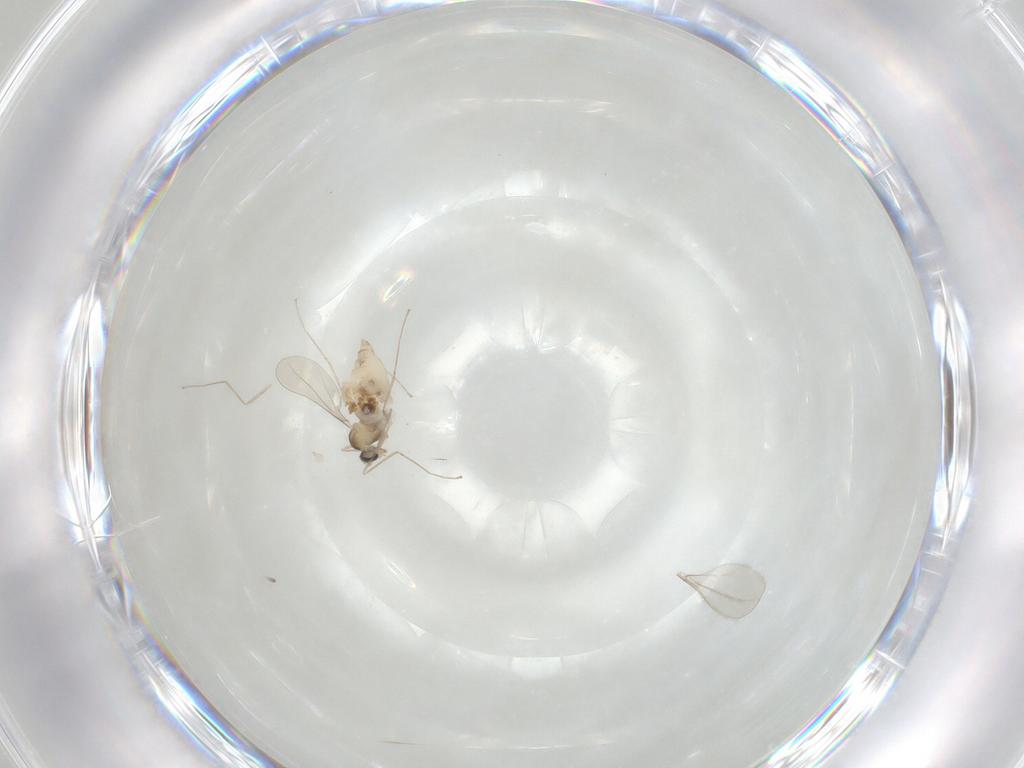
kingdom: Animalia
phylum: Arthropoda
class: Insecta
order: Diptera
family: Cecidomyiidae
